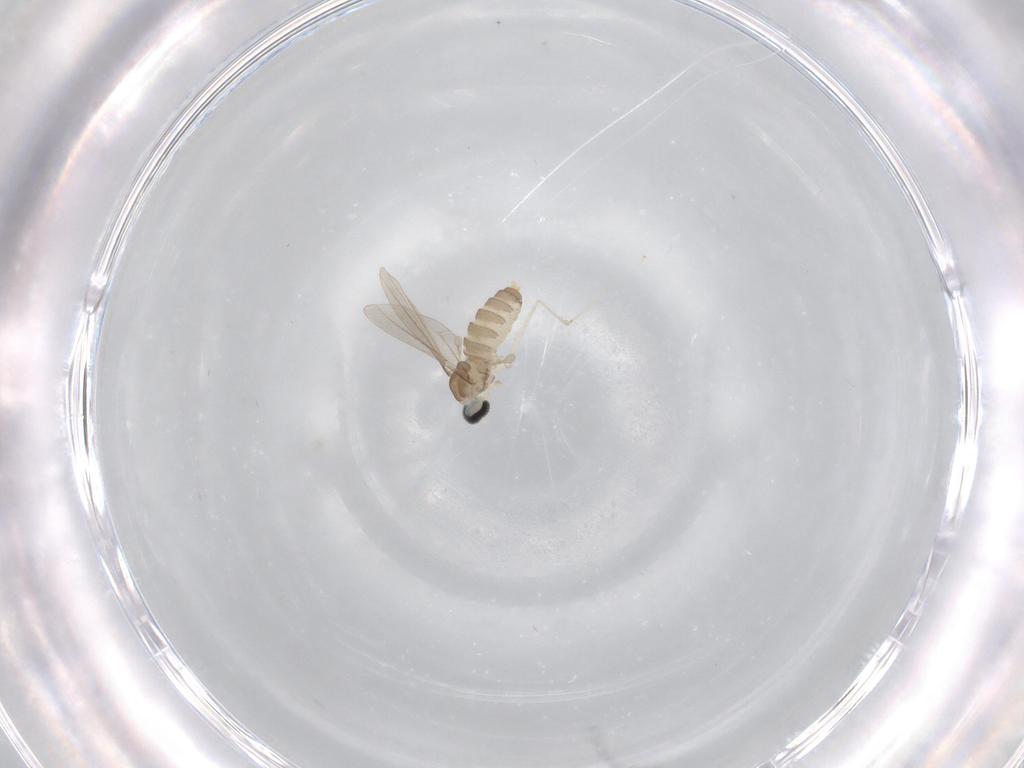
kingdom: Animalia
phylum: Arthropoda
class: Insecta
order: Diptera
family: Cecidomyiidae
